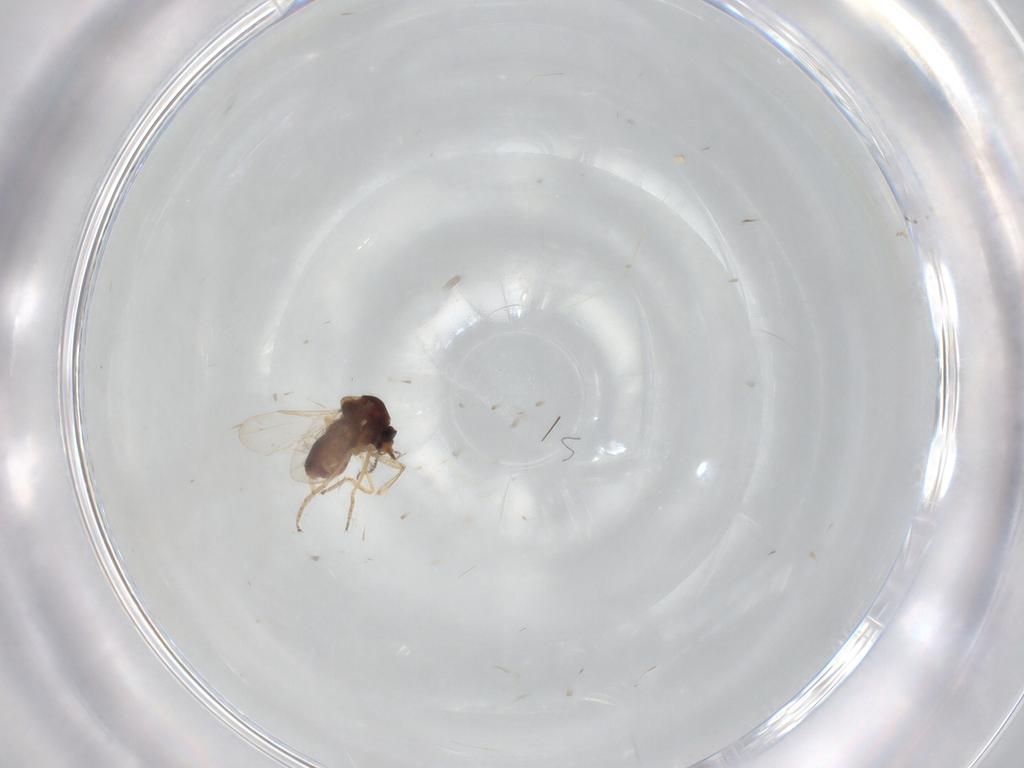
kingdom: Animalia
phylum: Arthropoda
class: Insecta
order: Diptera
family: Ceratopogonidae
